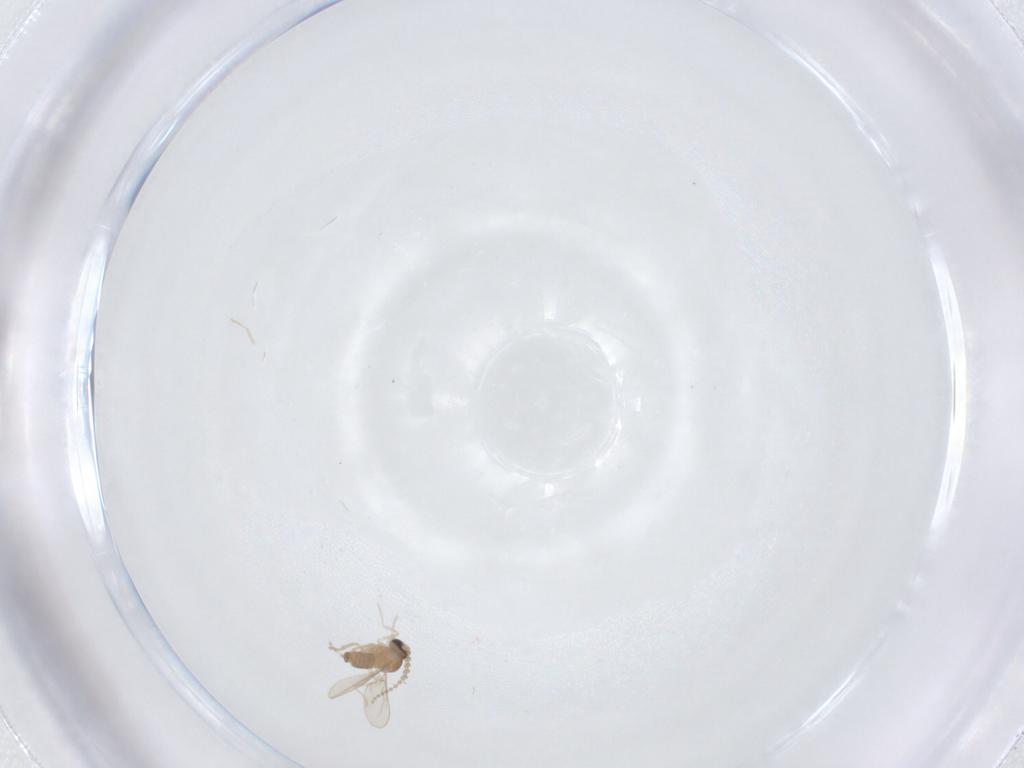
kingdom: Animalia
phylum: Arthropoda
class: Insecta
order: Diptera
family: Cecidomyiidae
